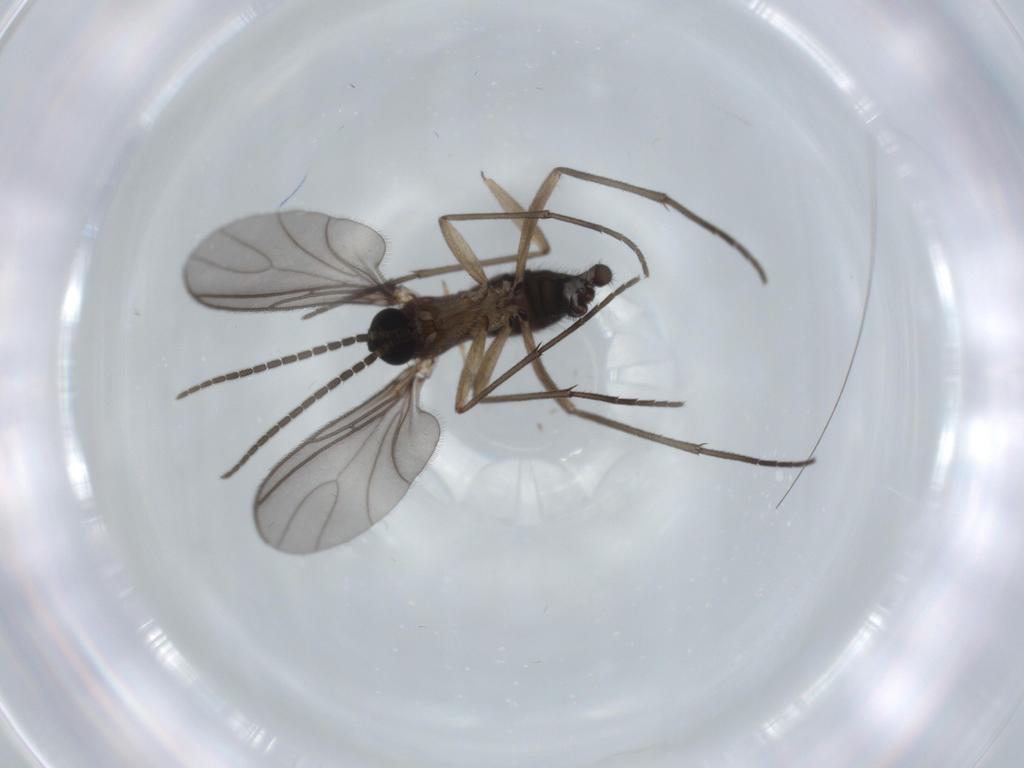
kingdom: Animalia
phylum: Arthropoda
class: Insecta
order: Diptera
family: Sciaridae
